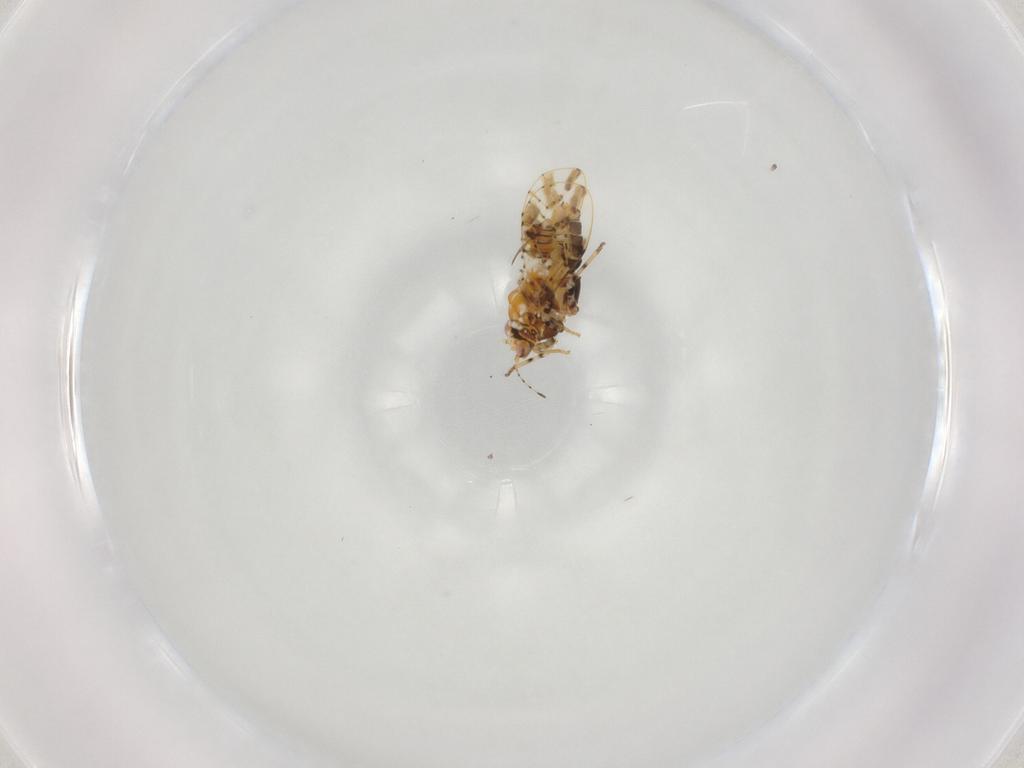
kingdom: Animalia
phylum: Arthropoda
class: Insecta
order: Hemiptera
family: Psylloidea_incertae_sedis
